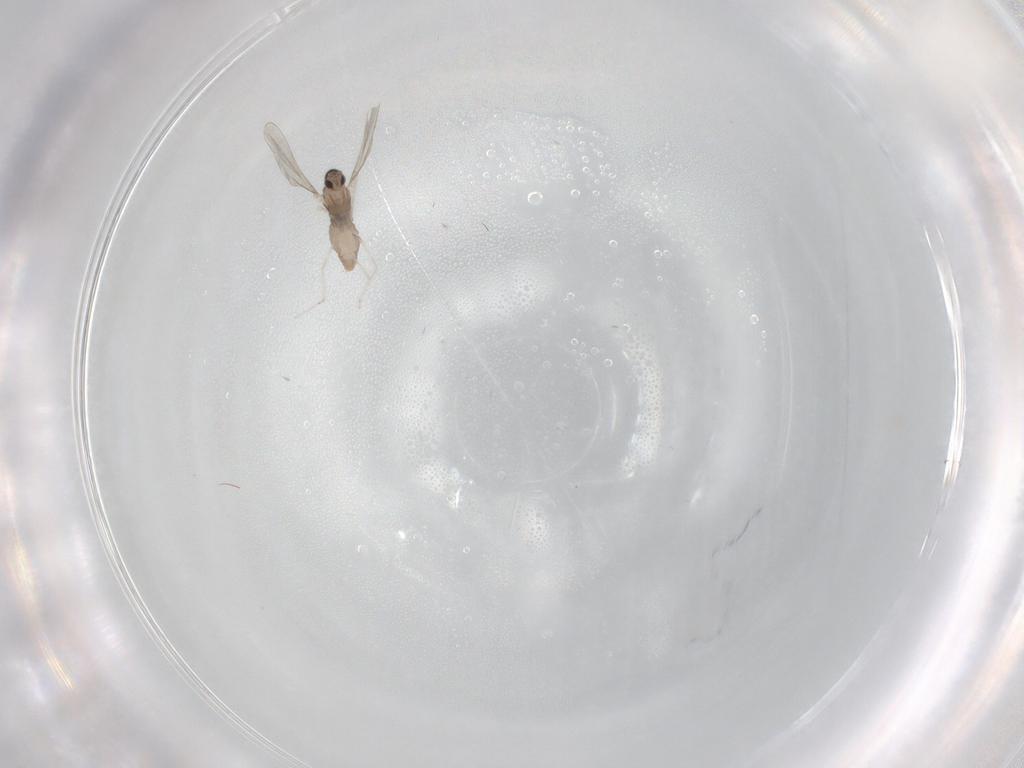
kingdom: Animalia
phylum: Arthropoda
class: Insecta
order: Diptera
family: Cecidomyiidae
